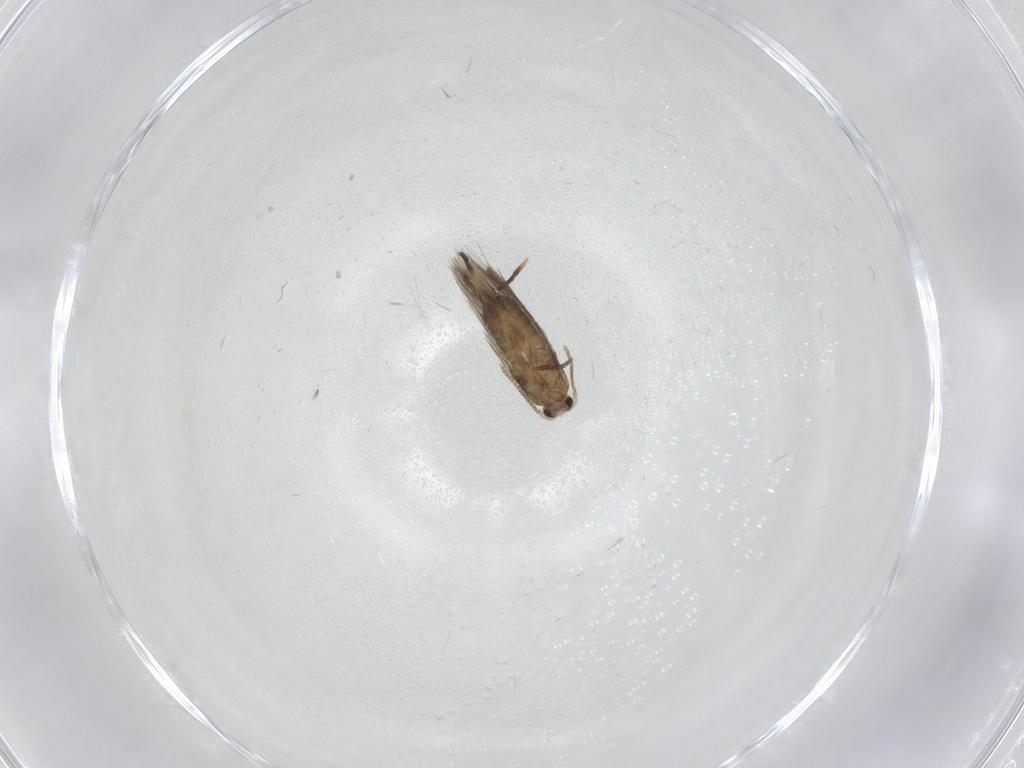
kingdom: Animalia
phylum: Arthropoda
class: Insecta
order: Lepidoptera
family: Nepticulidae
